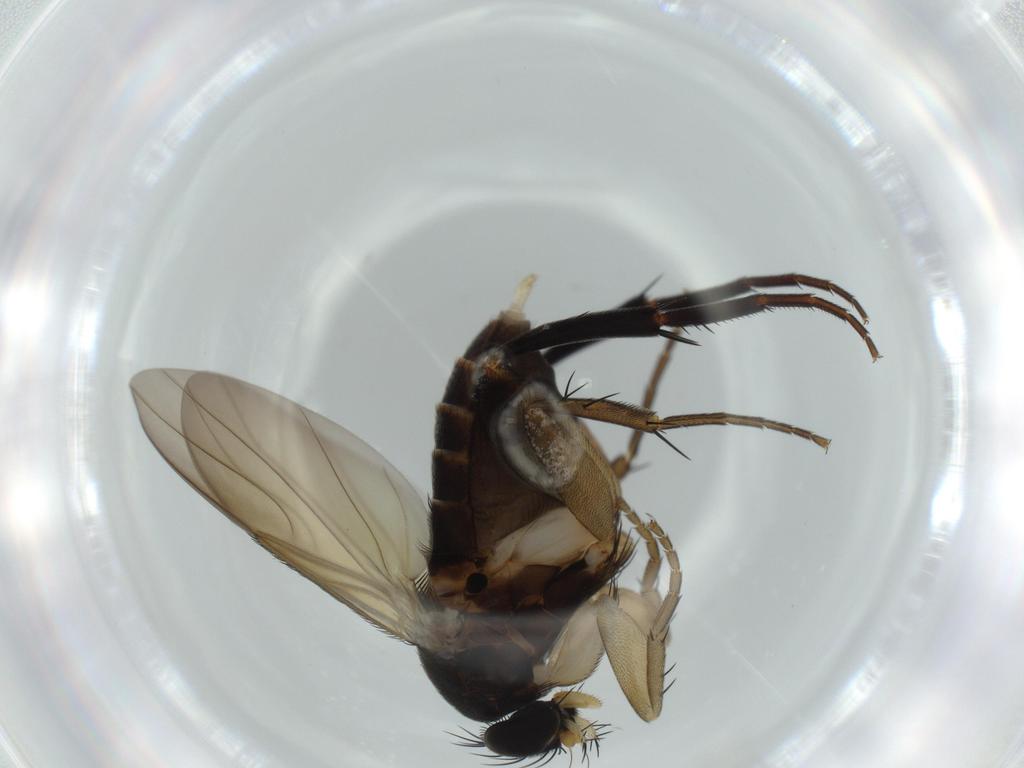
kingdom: Animalia
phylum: Arthropoda
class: Insecta
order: Diptera
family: Phoridae
